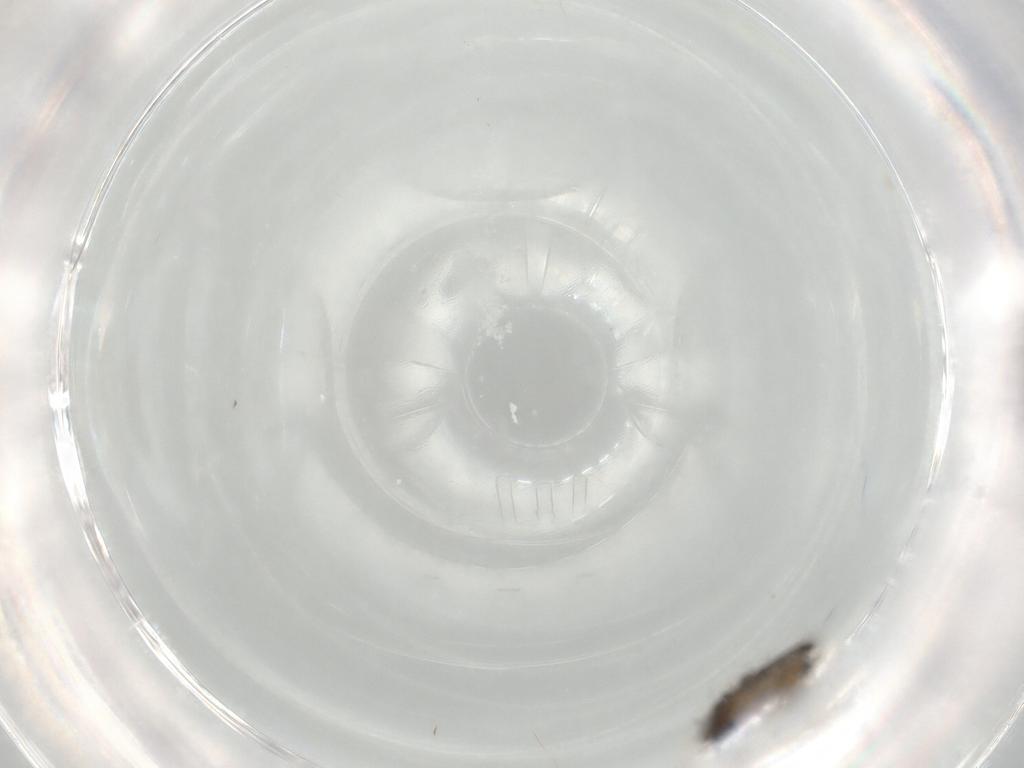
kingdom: Animalia
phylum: Arthropoda
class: Insecta
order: Diptera
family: Phoridae
